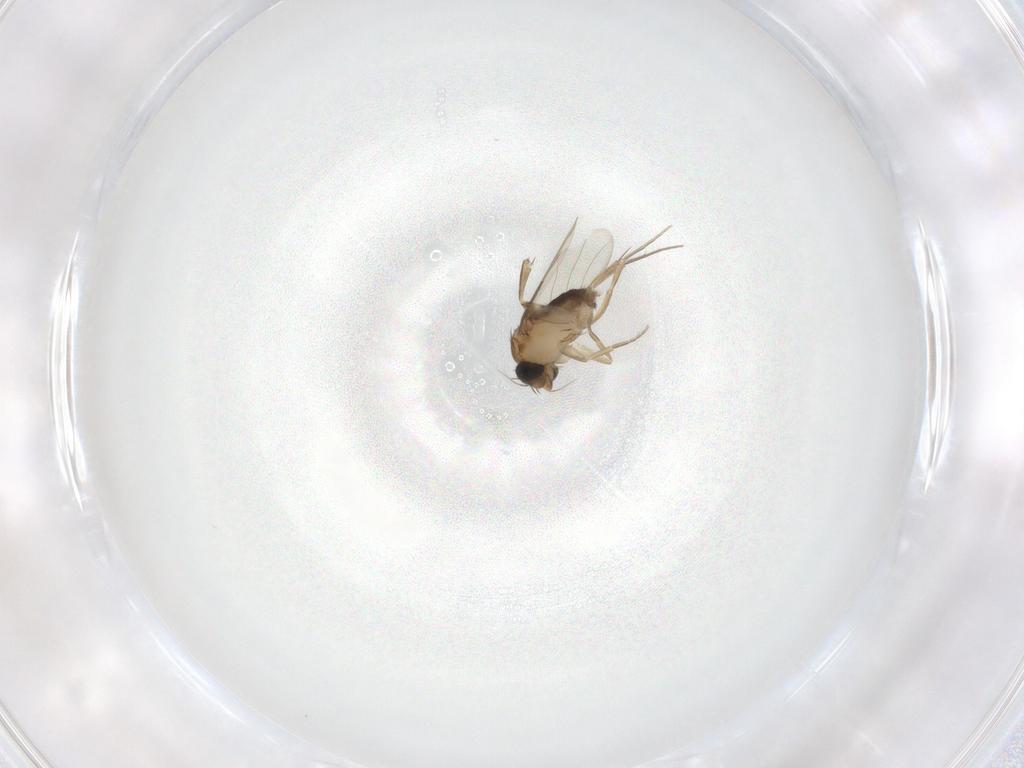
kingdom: Animalia
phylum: Arthropoda
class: Insecta
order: Diptera
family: Phoridae
